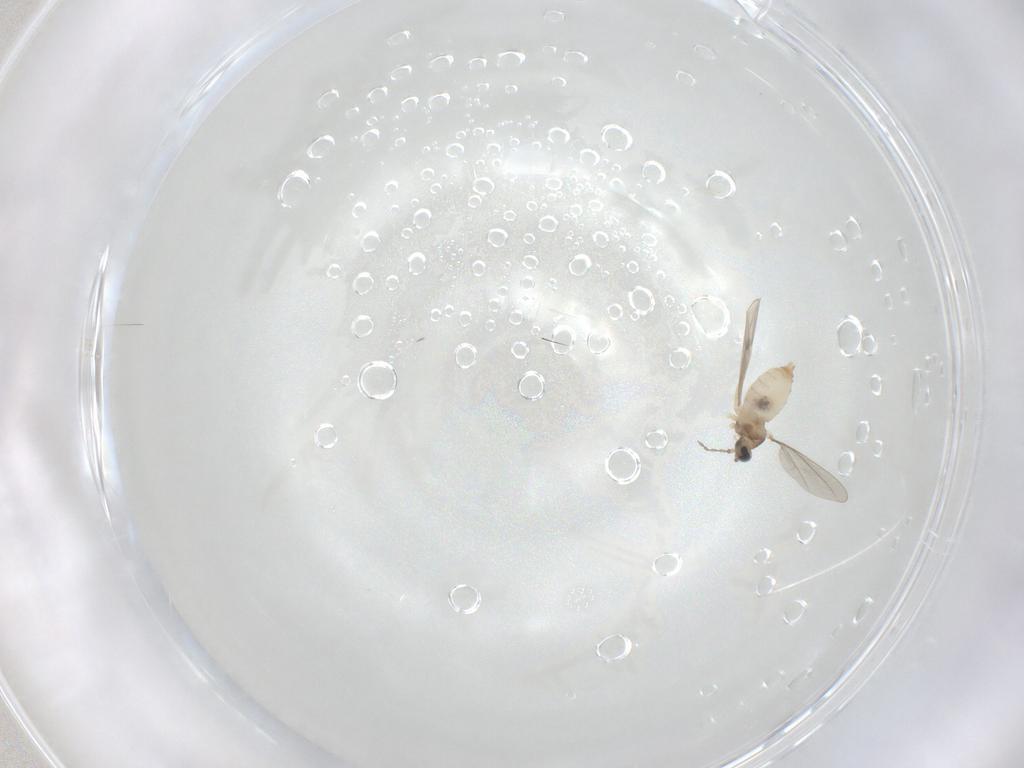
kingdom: Animalia
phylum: Arthropoda
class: Insecta
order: Diptera
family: Cecidomyiidae
